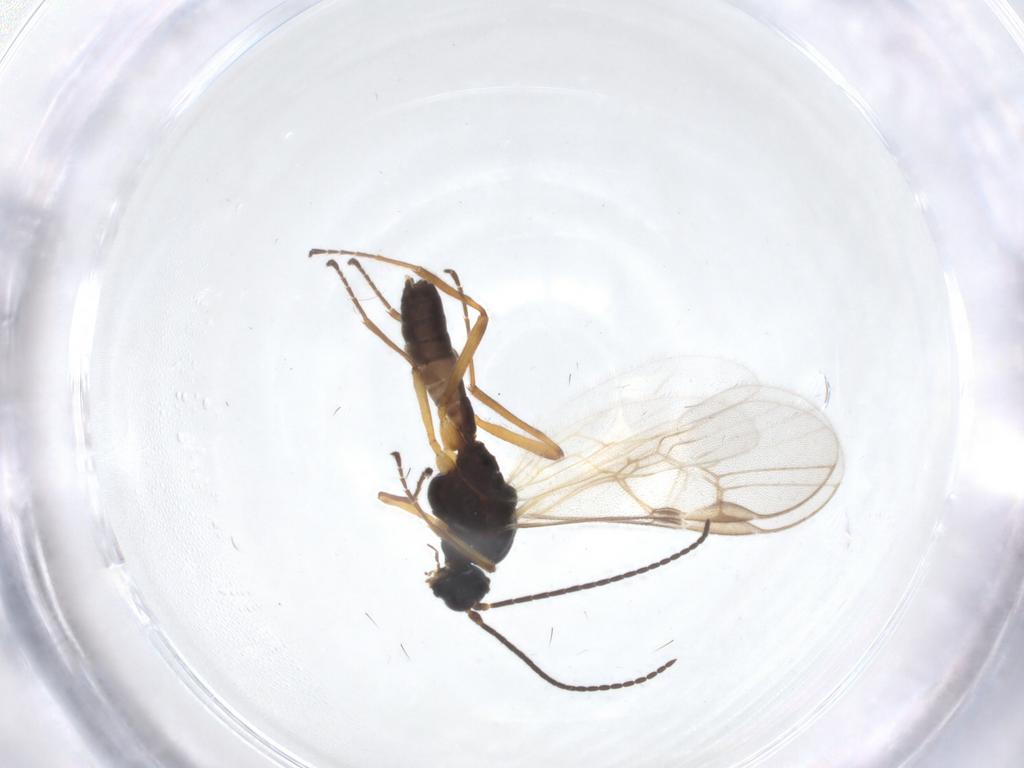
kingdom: Animalia
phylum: Arthropoda
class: Insecta
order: Hymenoptera
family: Braconidae
